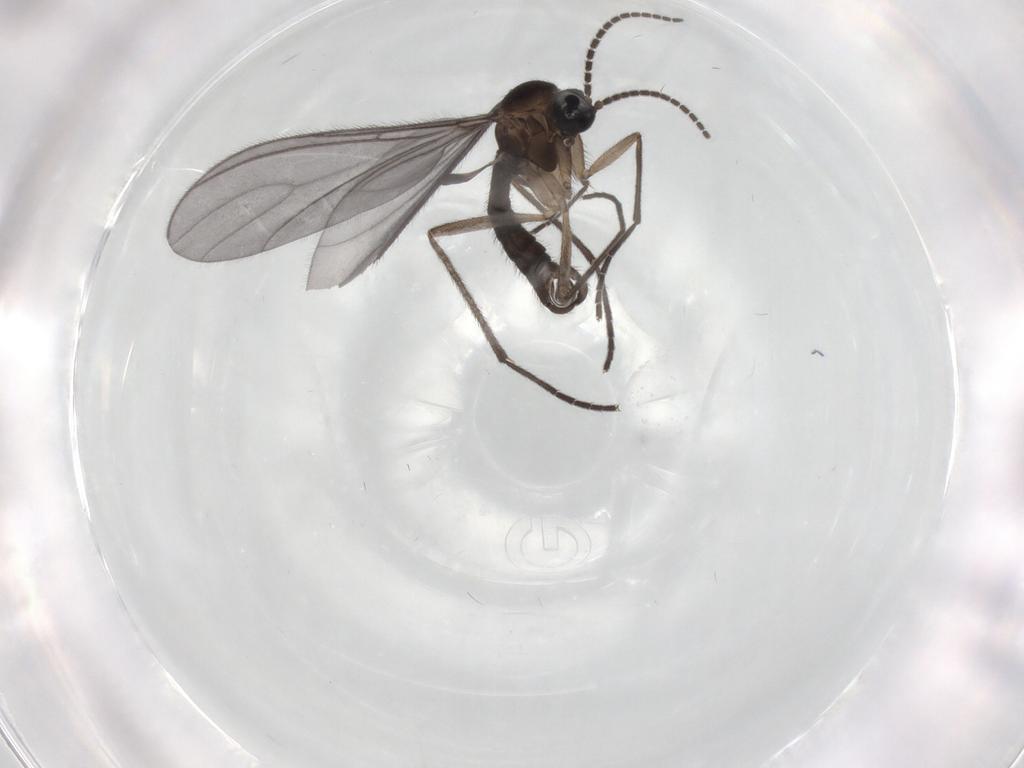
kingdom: Animalia
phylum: Arthropoda
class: Insecta
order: Diptera
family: Sciaridae
